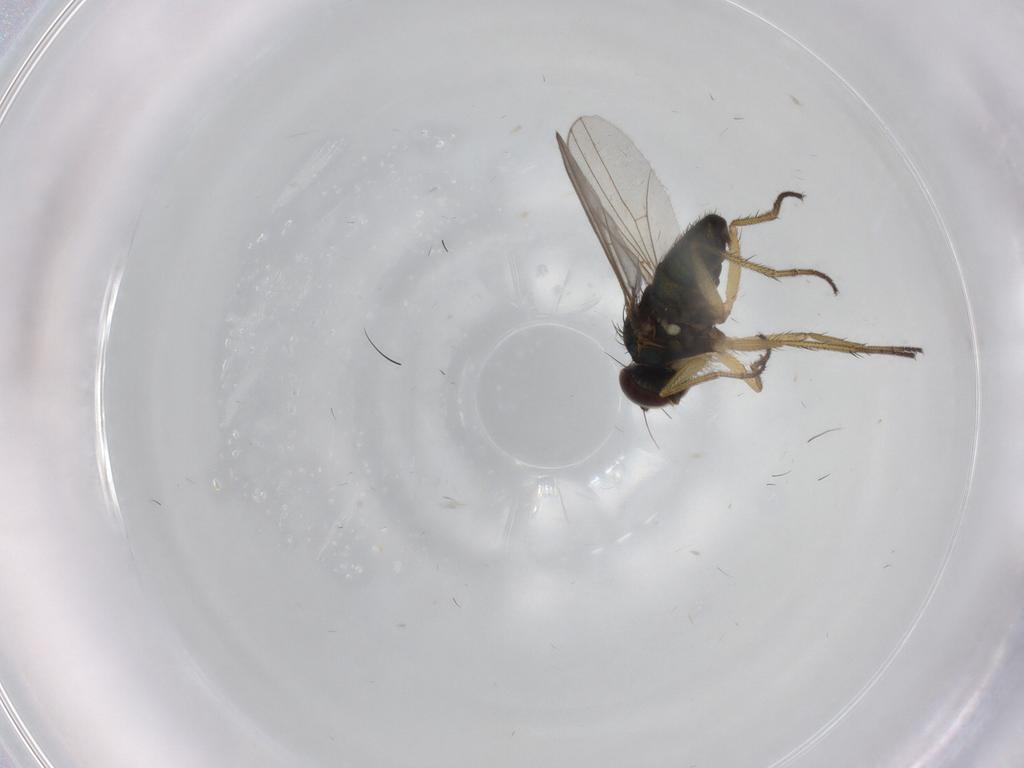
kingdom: Animalia
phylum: Arthropoda
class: Insecta
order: Diptera
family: Dolichopodidae
